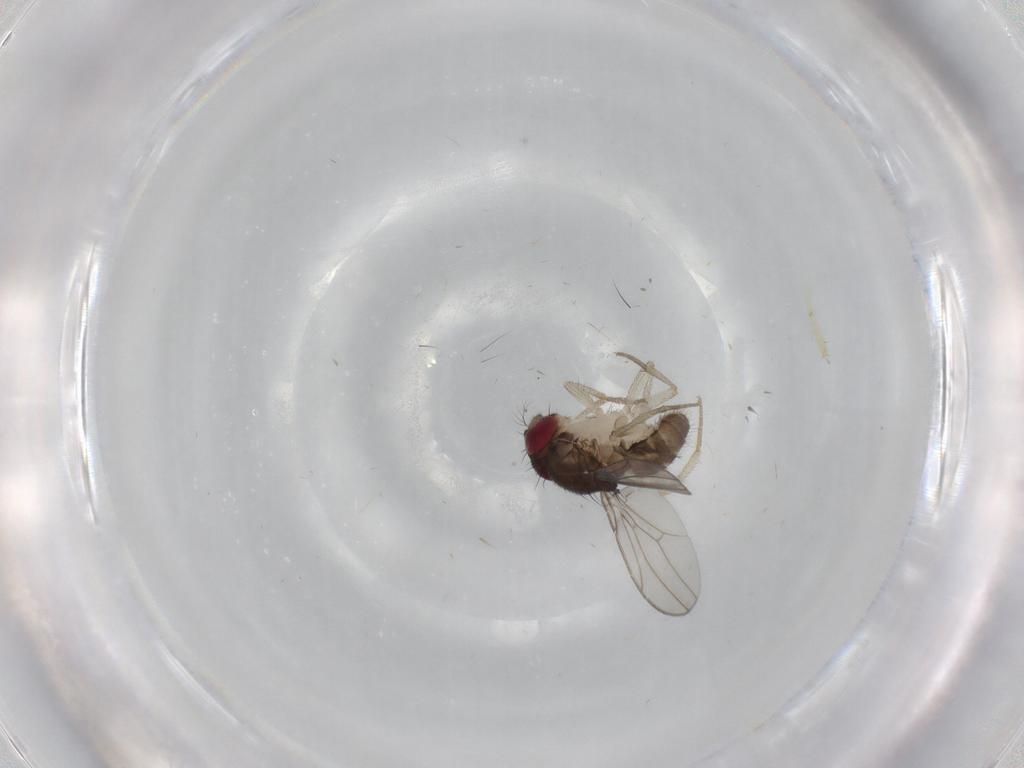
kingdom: Animalia
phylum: Arthropoda
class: Insecta
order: Diptera
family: Drosophilidae
